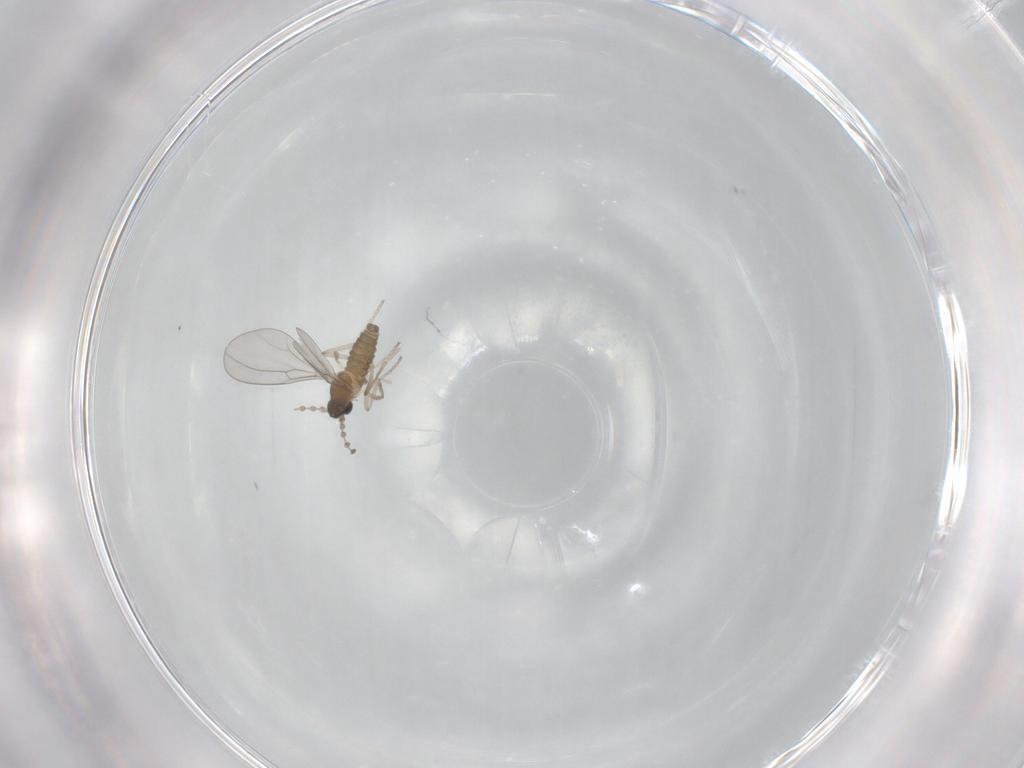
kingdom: Animalia
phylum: Arthropoda
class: Insecta
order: Diptera
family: Cecidomyiidae
